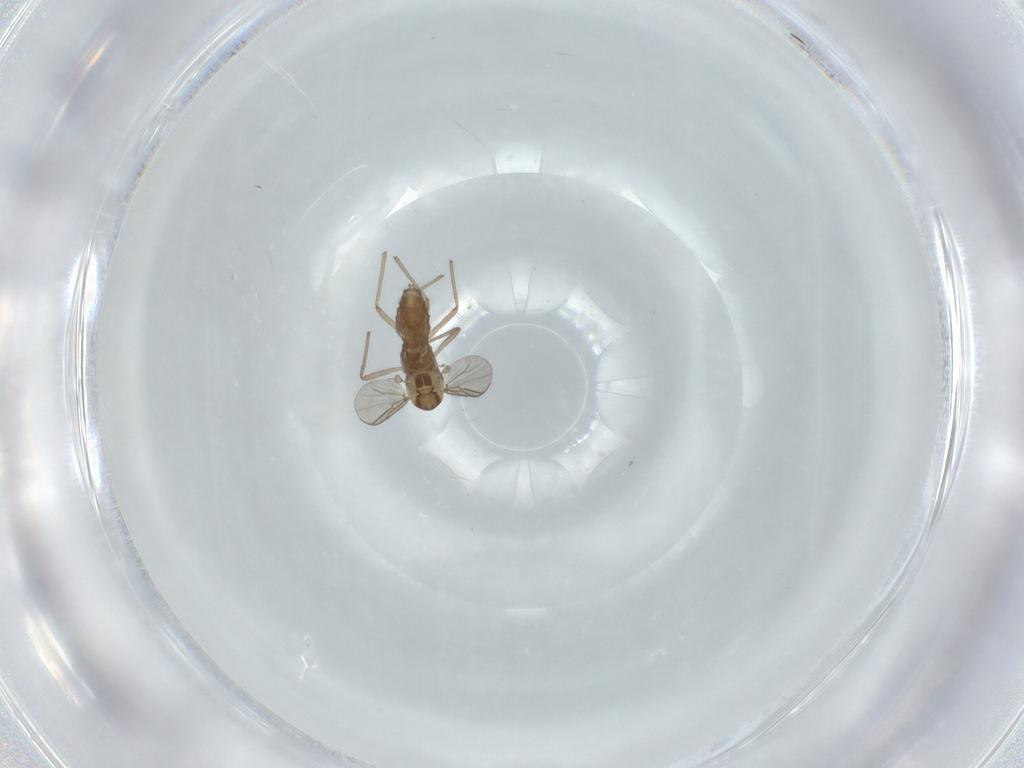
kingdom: Animalia
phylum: Arthropoda
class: Insecta
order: Diptera
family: Chironomidae
